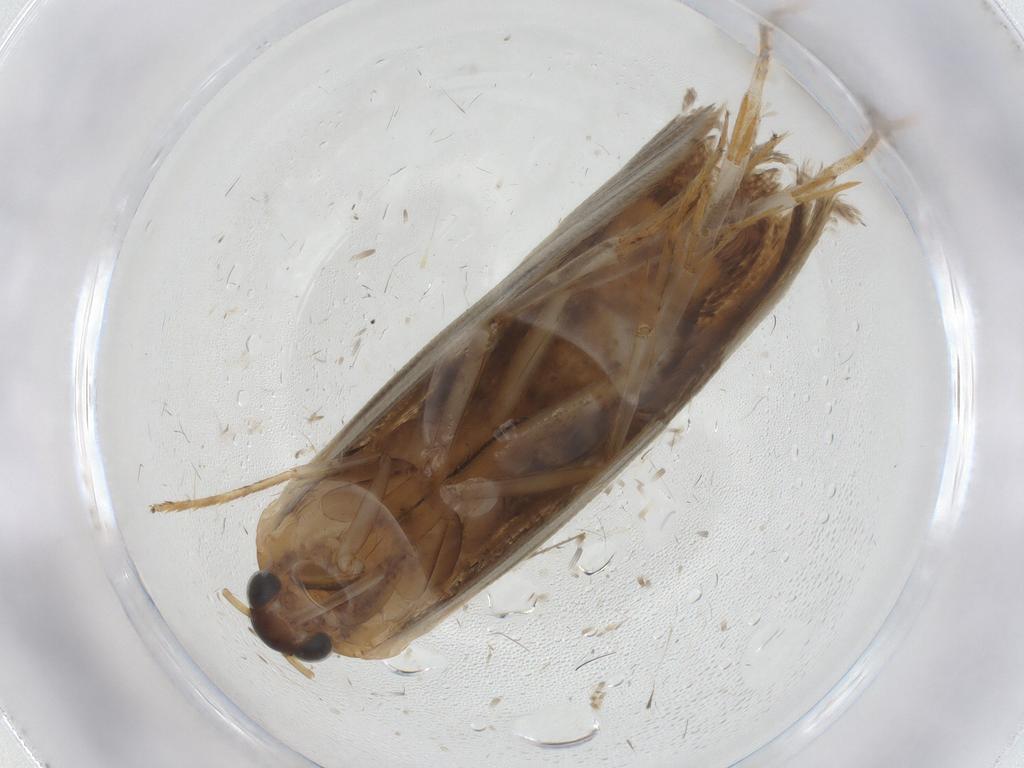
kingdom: Animalia
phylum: Arthropoda
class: Insecta
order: Lepidoptera
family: Oecophoridae
